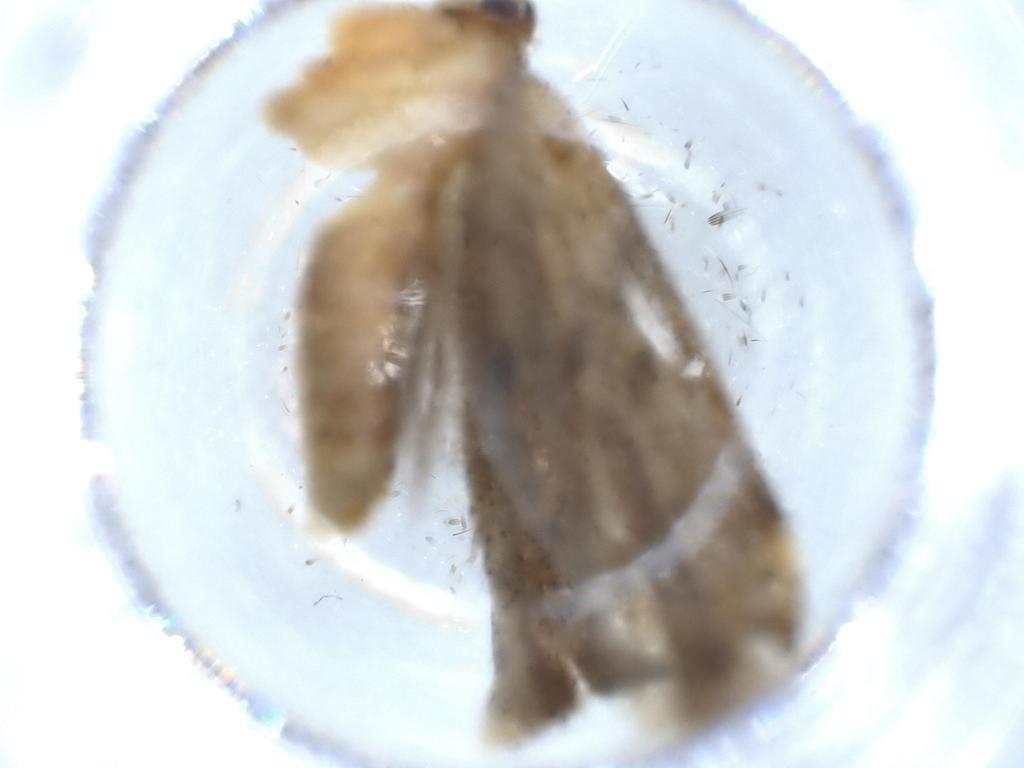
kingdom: Animalia
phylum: Arthropoda
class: Insecta
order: Lepidoptera
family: Gelechiidae
